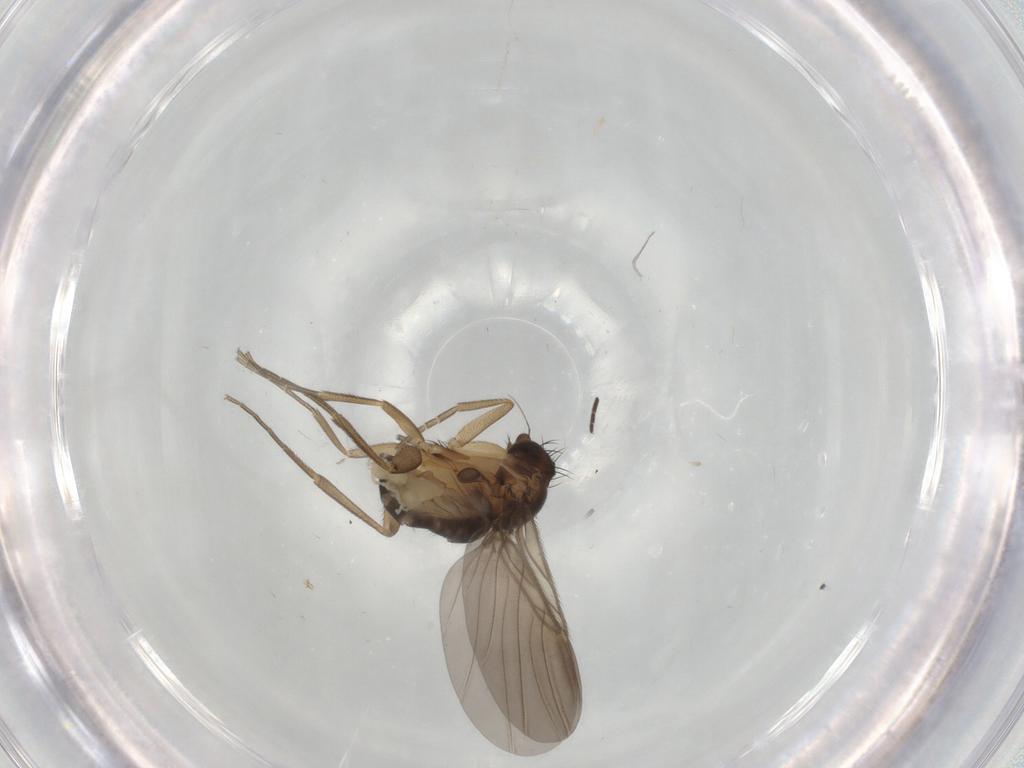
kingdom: Animalia
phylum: Arthropoda
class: Insecta
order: Diptera
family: Phoridae
